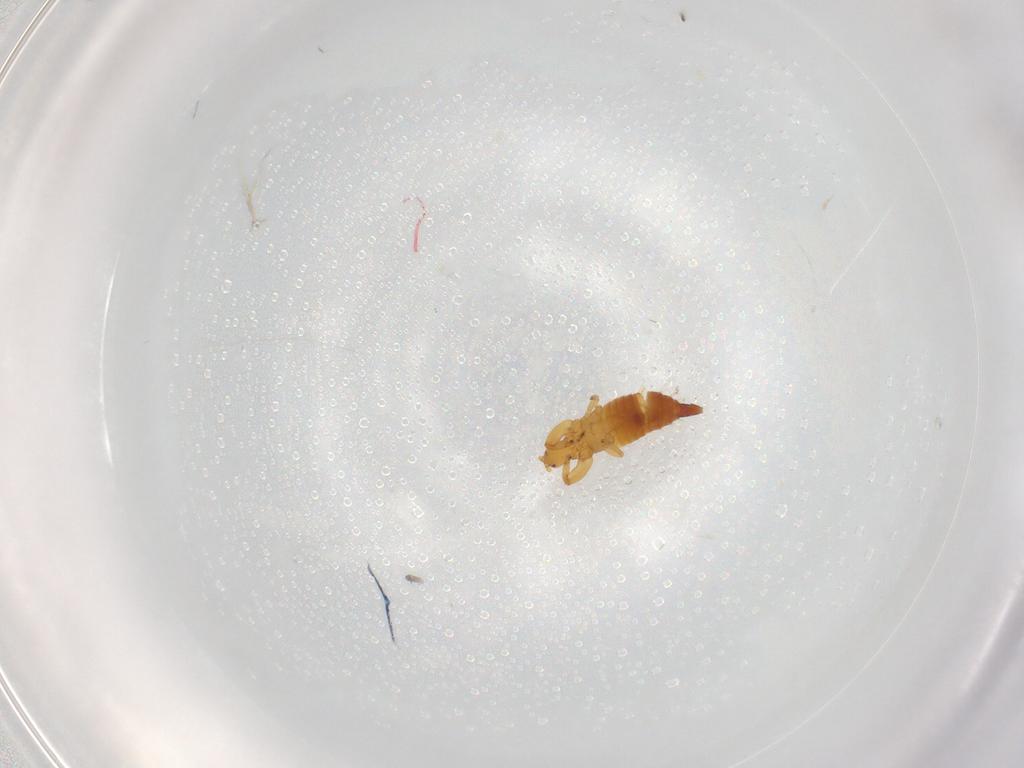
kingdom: Animalia
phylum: Arthropoda
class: Insecta
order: Thysanoptera
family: Phlaeothripidae
